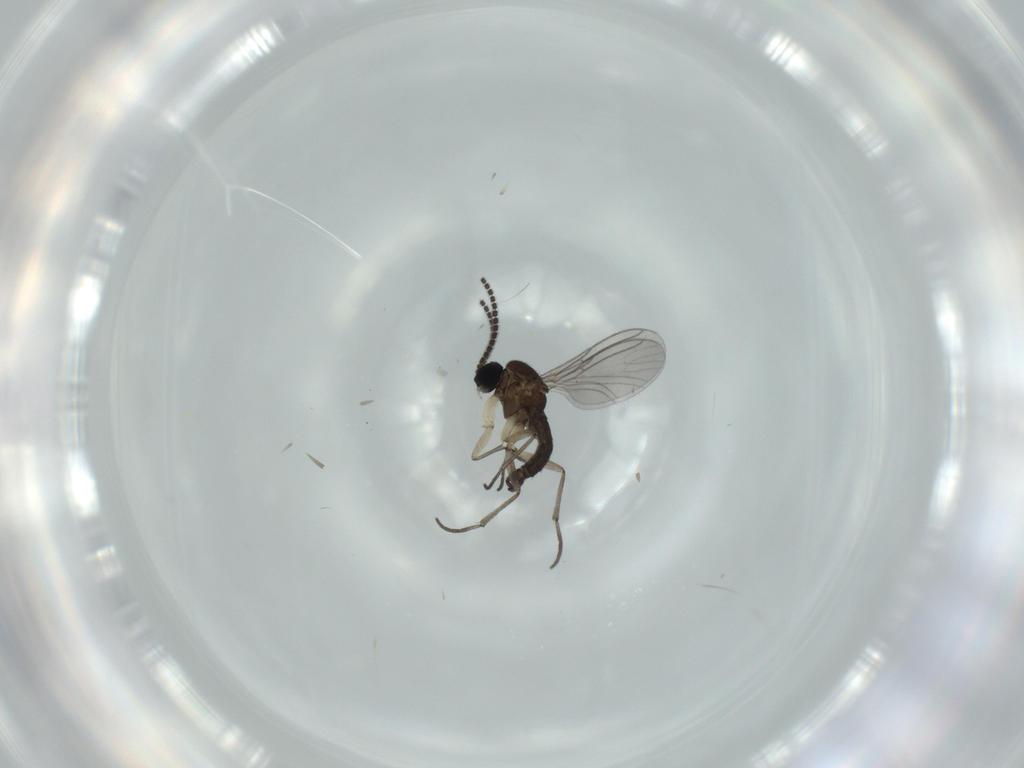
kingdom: Animalia
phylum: Arthropoda
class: Insecta
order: Diptera
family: Sciaridae
